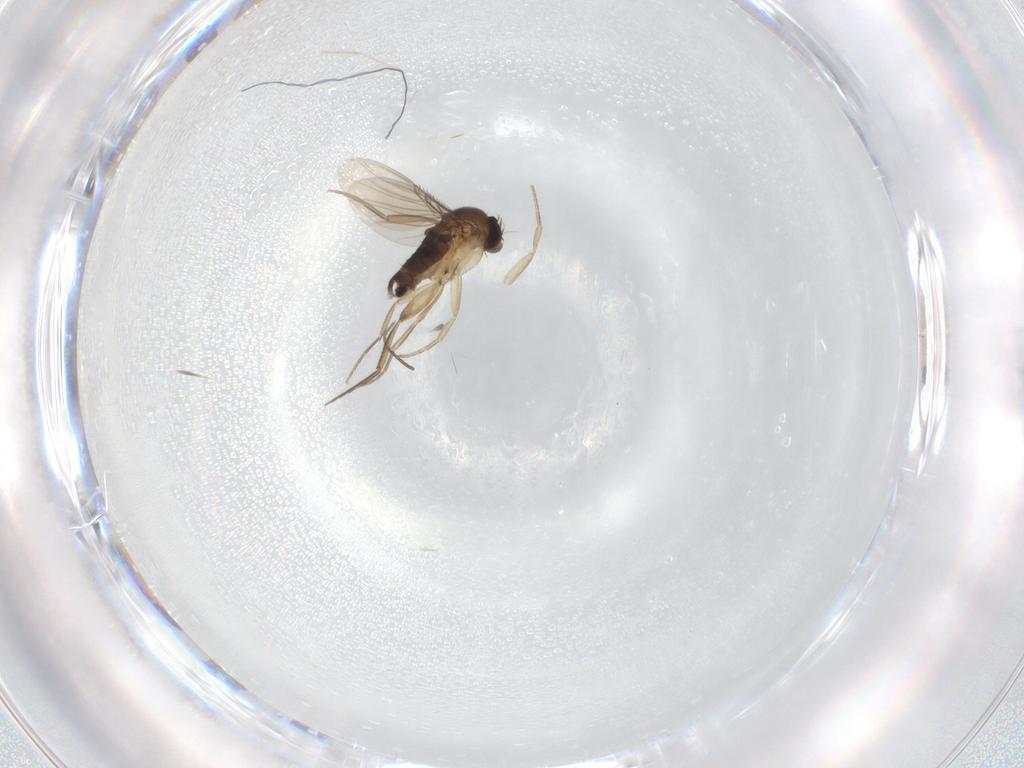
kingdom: Animalia
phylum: Arthropoda
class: Insecta
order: Diptera
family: Phoridae
